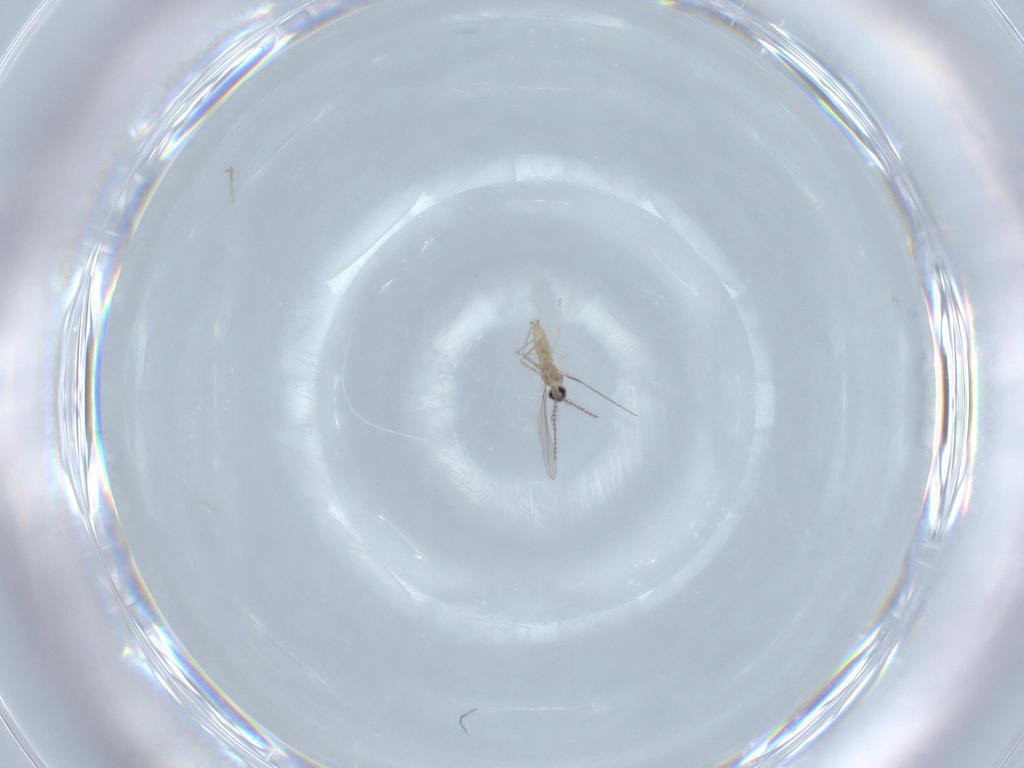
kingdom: Animalia
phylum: Arthropoda
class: Insecta
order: Diptera
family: Cecidomyiidae
